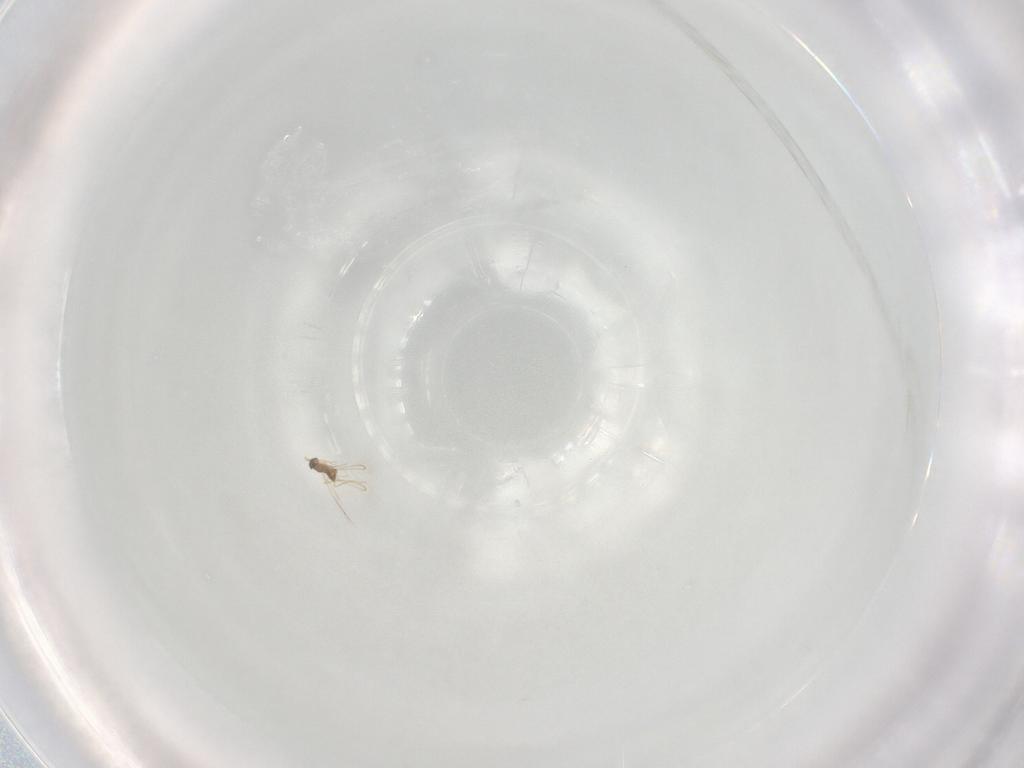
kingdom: Animalia
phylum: Arthropoda
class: Insecta
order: Hymenoptera
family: Mymaridae
